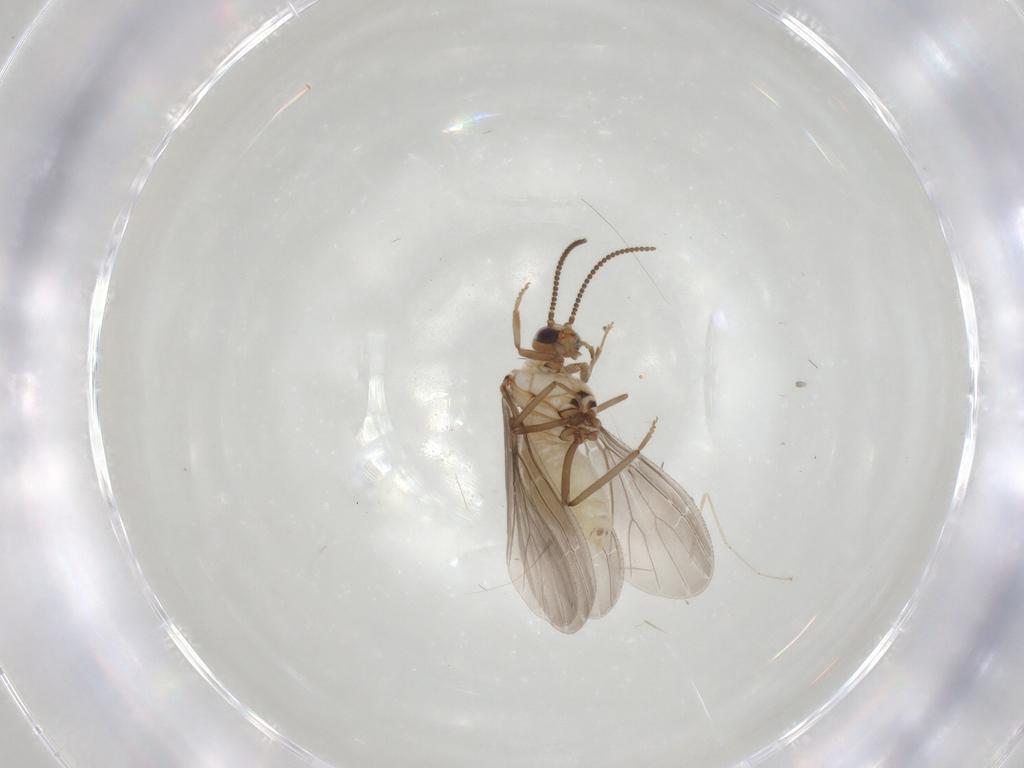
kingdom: Animalia
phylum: Arthropoda
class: Insecta
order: Neuroptera
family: Coniopterygidae
